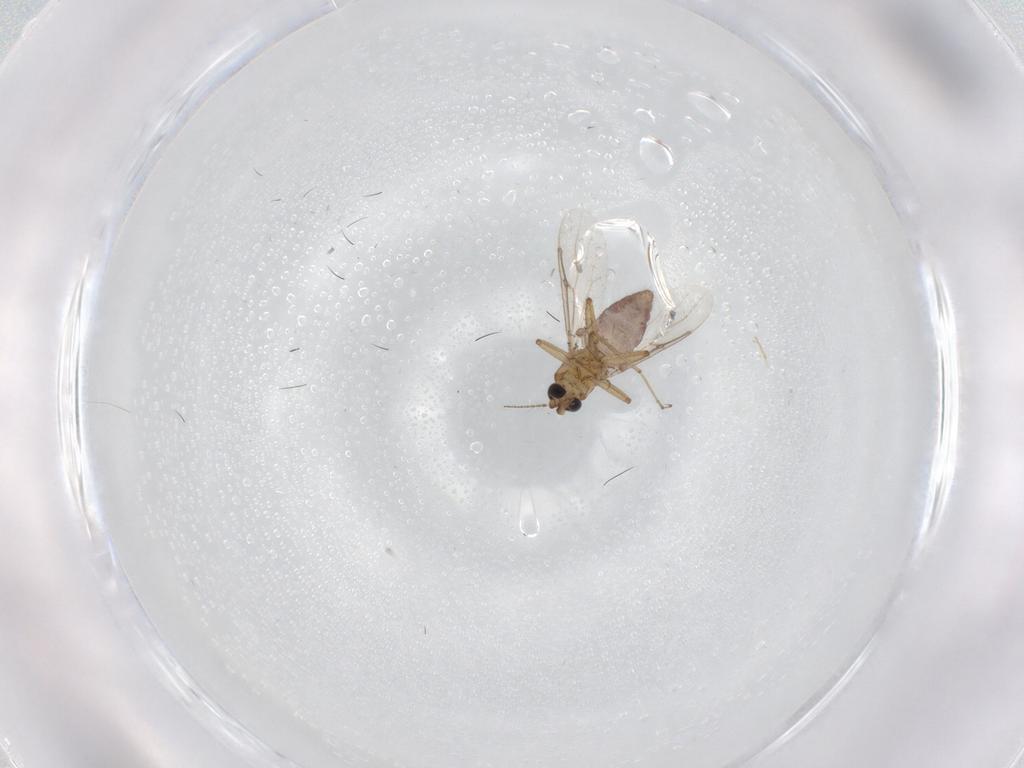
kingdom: Animalia
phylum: Arthropoda
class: Insecta
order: Diptera
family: Ceratopogonidae
